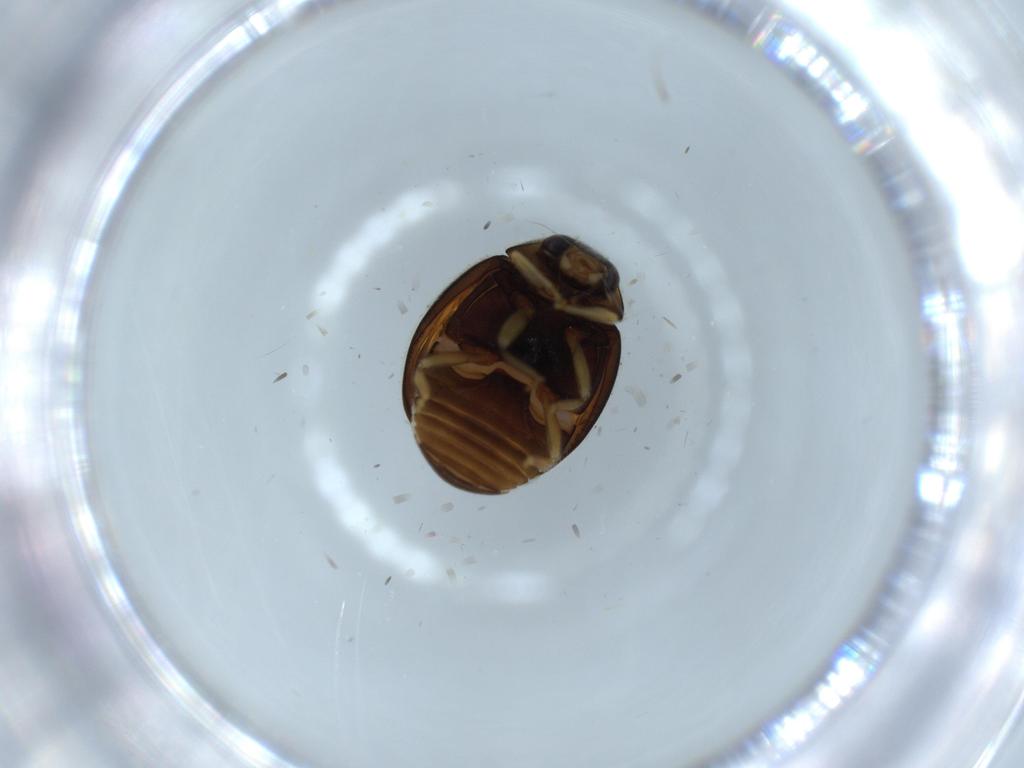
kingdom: Animalia
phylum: Arthropoda
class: Insecta
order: Coleoptera
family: Coccinellidae
